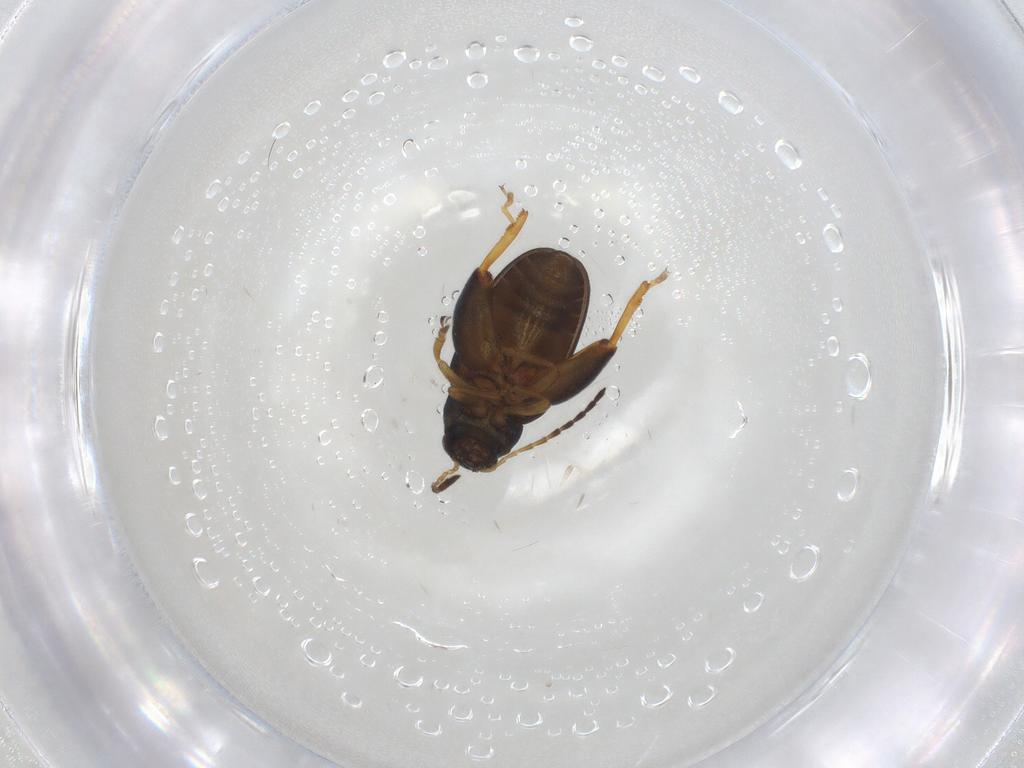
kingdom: Animalia
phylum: Arthropoda
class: Insecta
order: Coleoptera
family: Chrysomelidae
